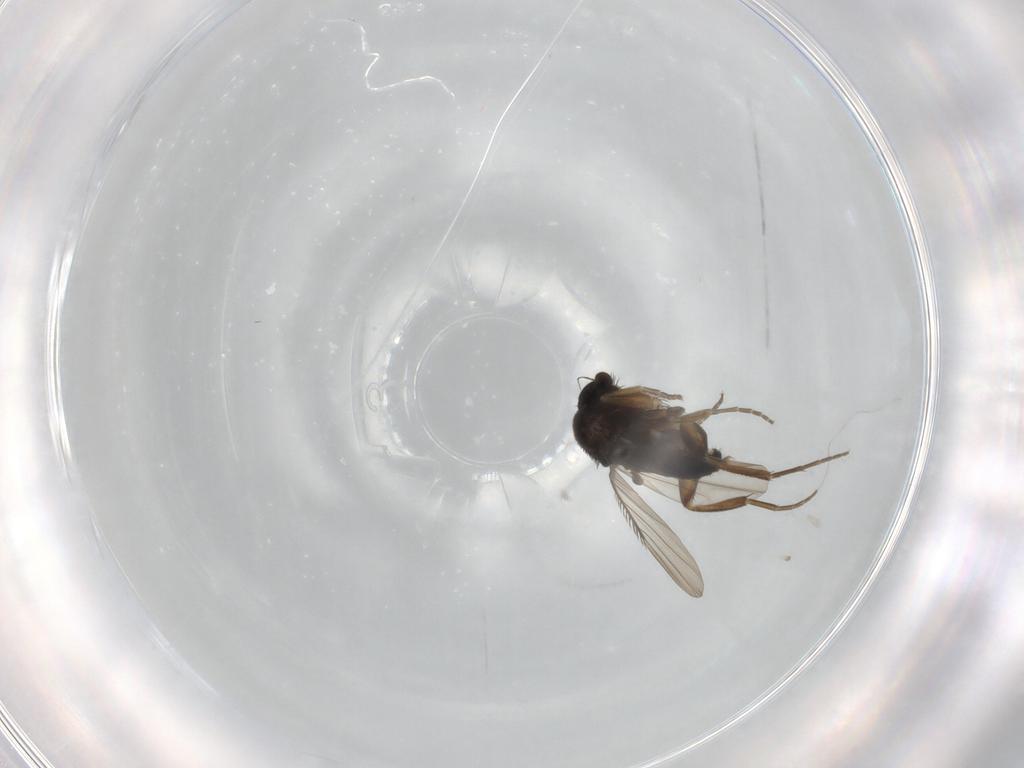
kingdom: Animalia
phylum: Arthropoda
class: Insecta
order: Diptera
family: Phoridae
